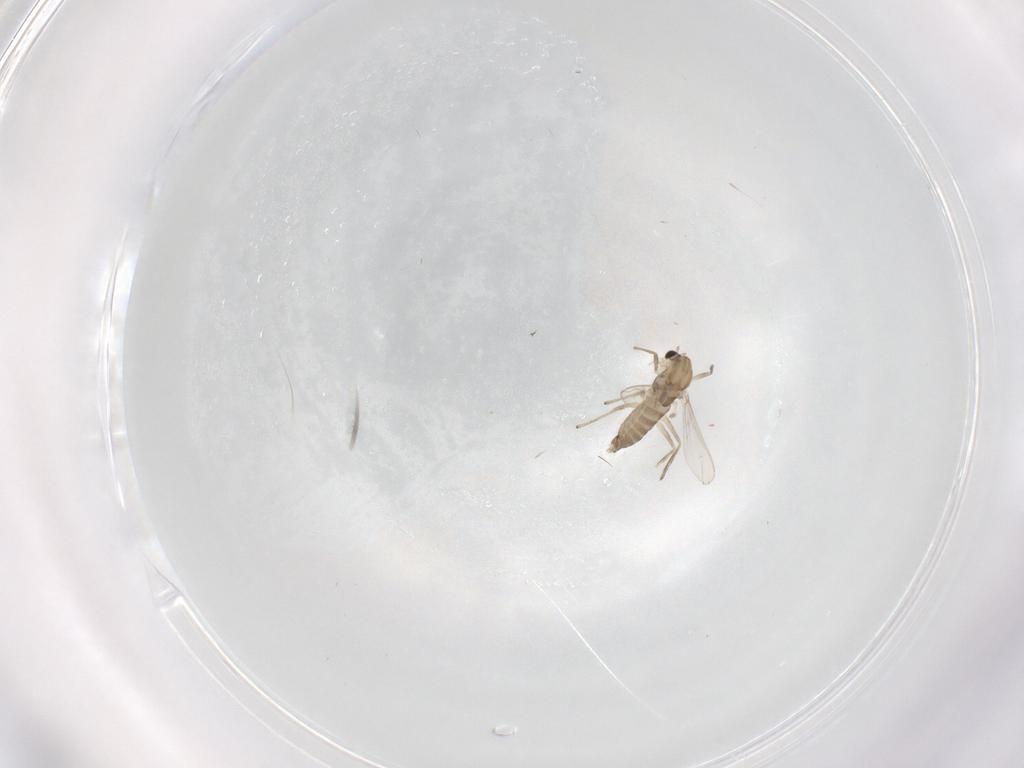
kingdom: Animalia
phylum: Arthropoda
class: Insecta
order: Diptera
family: Chironomidae
